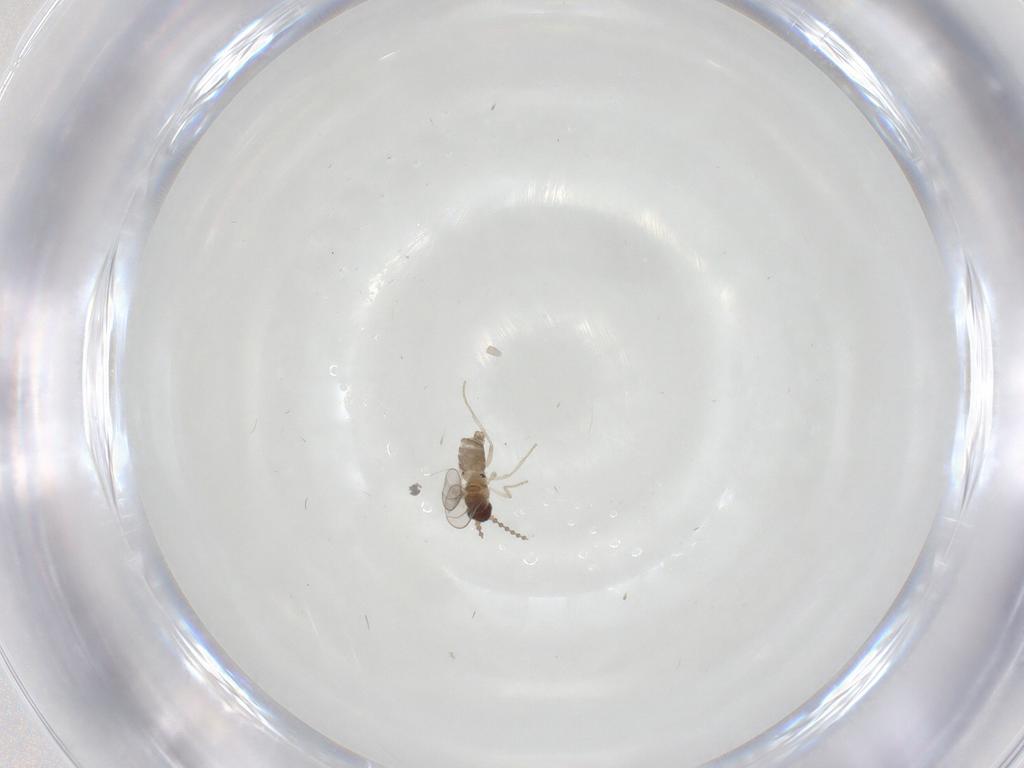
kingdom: Animalia
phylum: Arthropoda
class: Insecta
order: Diptera
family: Cecidomyiidae
